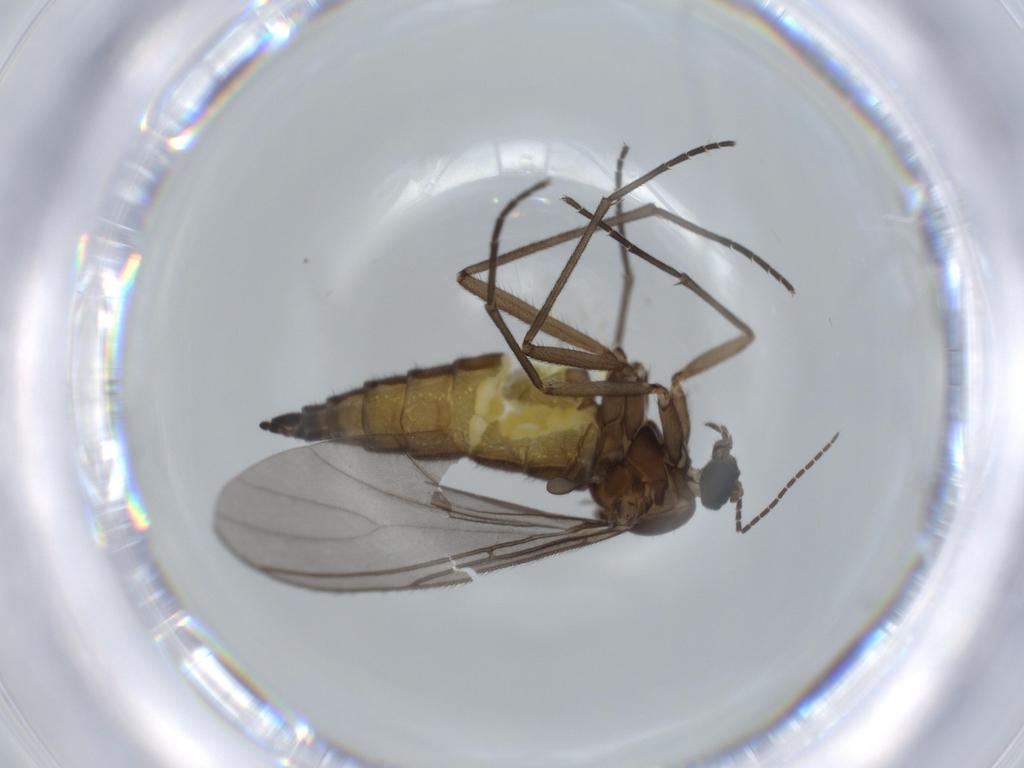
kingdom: Animalia
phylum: Arthropoda
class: Insecta
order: Diptera
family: Sciaridae
